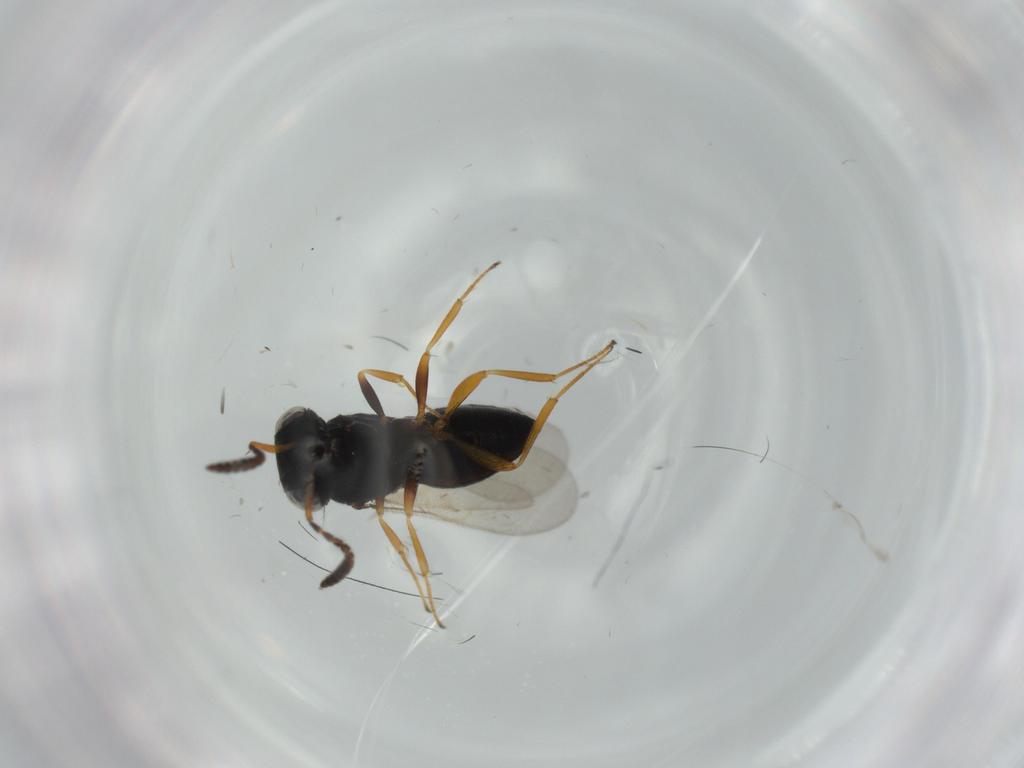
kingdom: Animalia
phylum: Arthropoda
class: Insecta
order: Hymenoptera
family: Scelionidae
